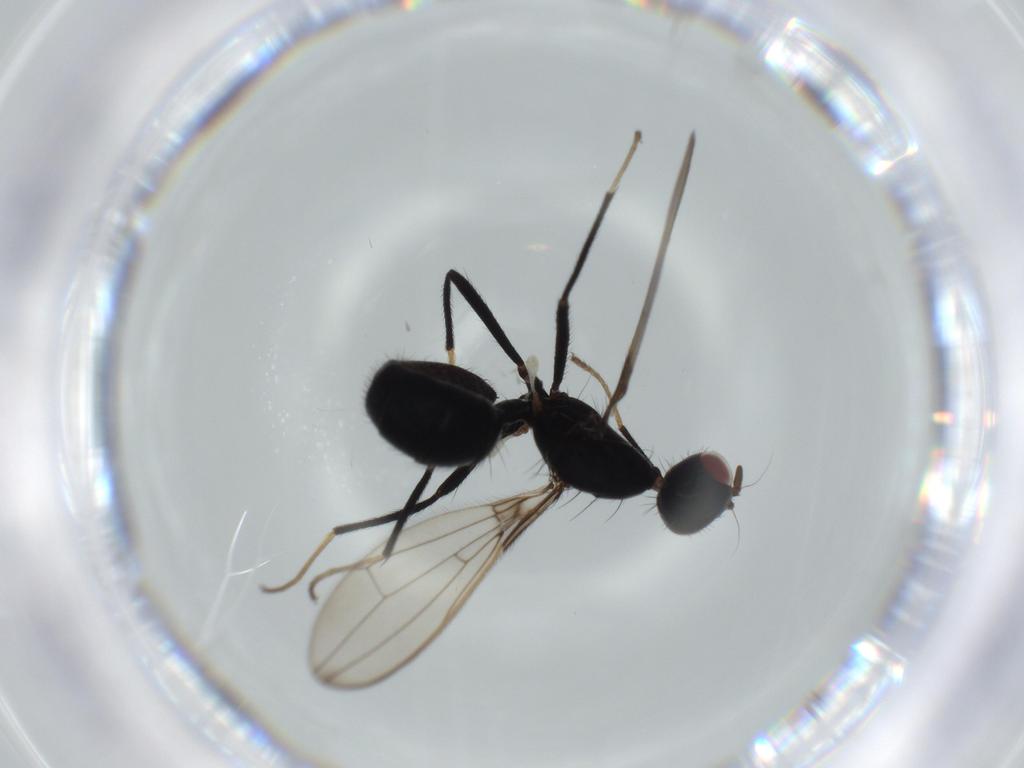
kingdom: Animalia
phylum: Arthropoda
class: Insecta
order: Diptera
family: Richardiidae
